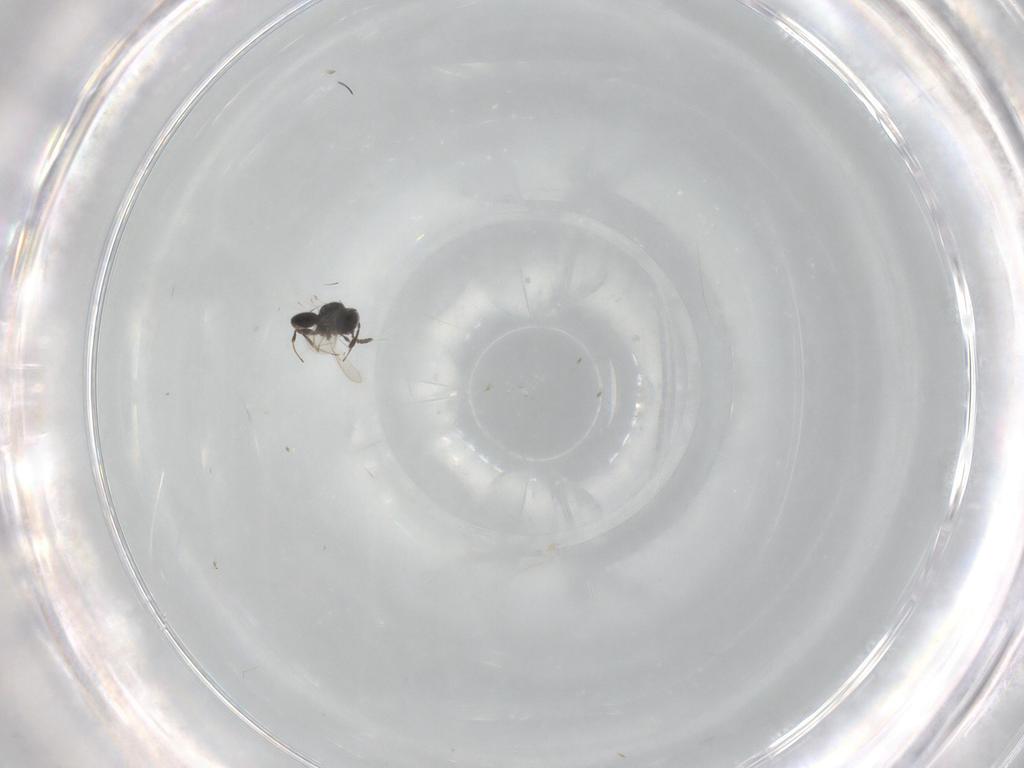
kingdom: Animalia
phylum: Arthropoda
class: Insecta
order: Hymenoptera
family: Scelionidae
